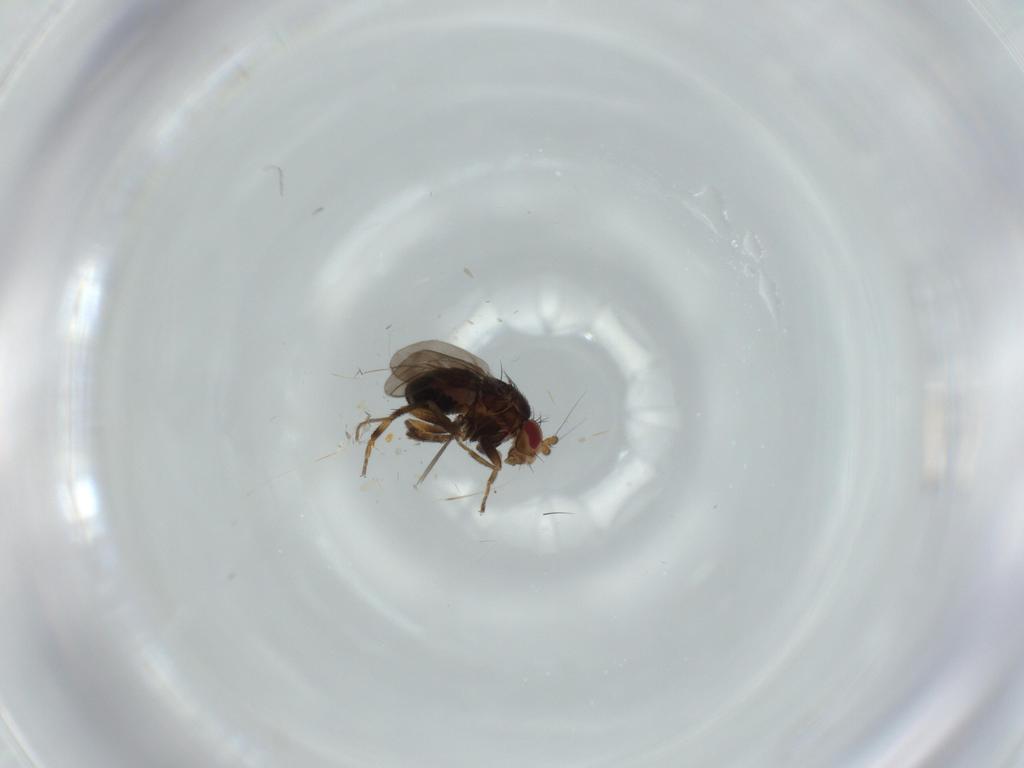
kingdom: Animalia
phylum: Arthropoda
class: Insecta
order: Diptera
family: Sphaeroceridae
